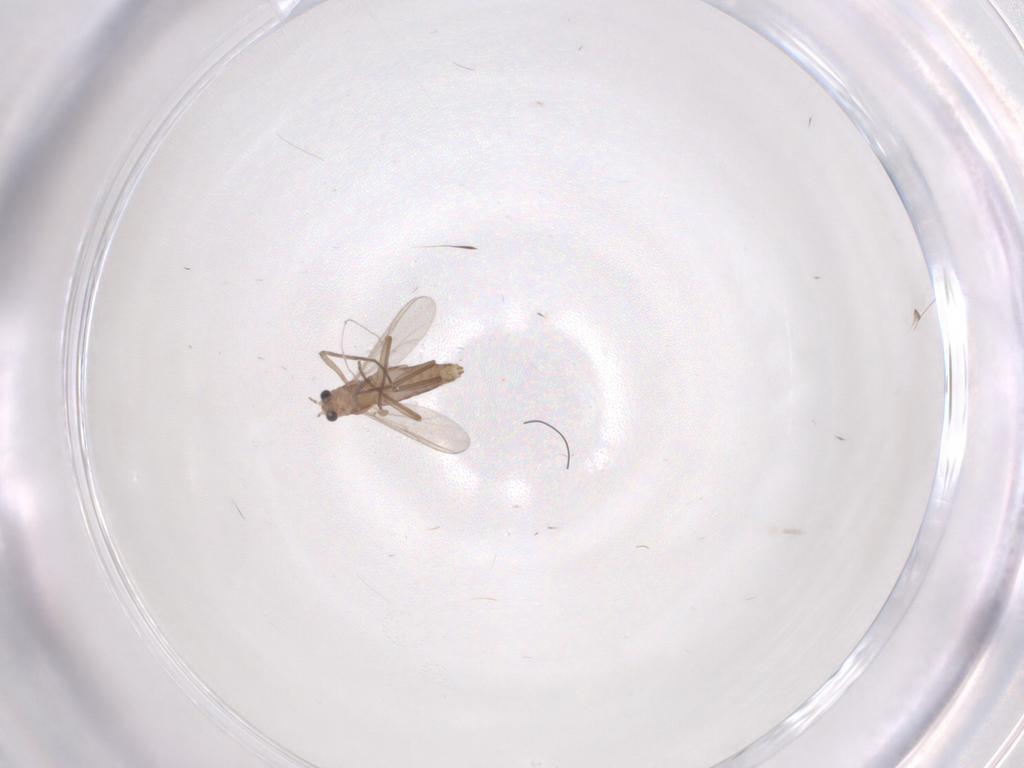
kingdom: Animalia
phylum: Arthropoda
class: Insecta
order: Diptera
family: Chironomidae
